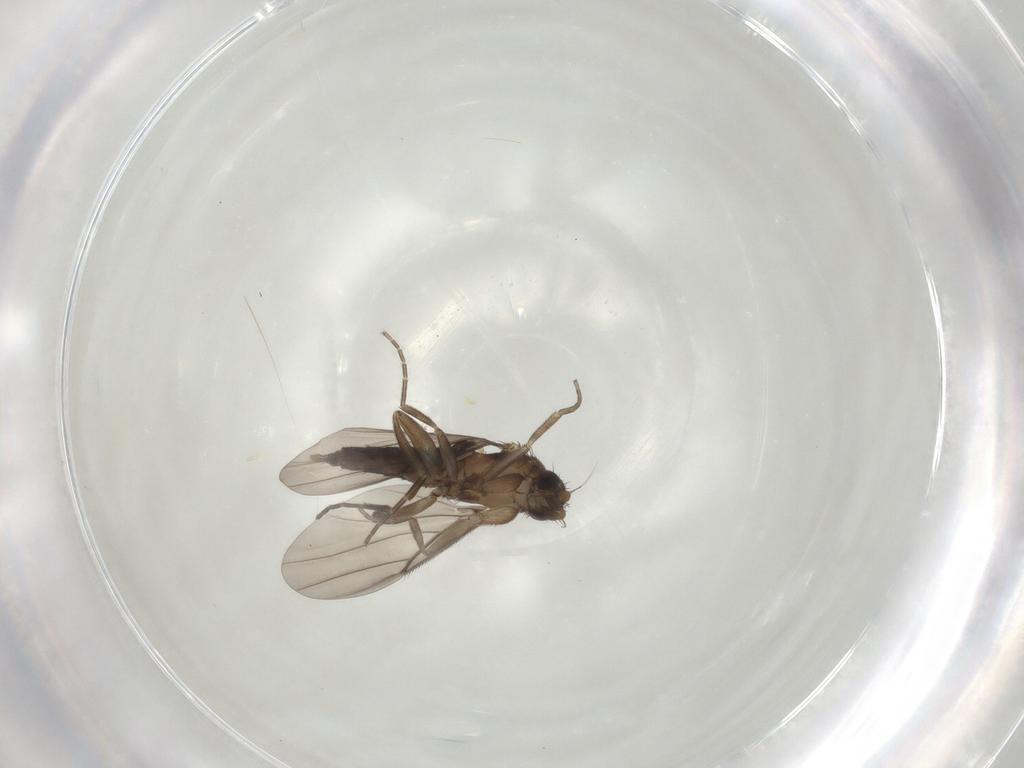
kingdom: Animalia
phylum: Arthropoda
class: Insecta
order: Diptera
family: Phoridae
